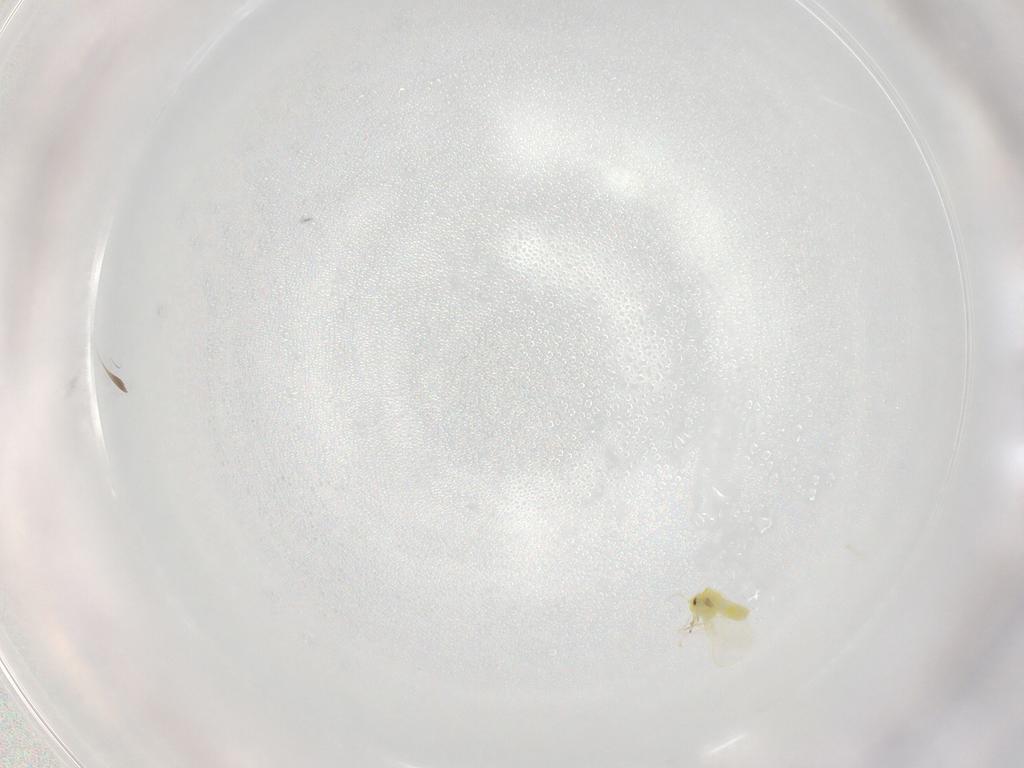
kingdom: Animalia
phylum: Arthropoda
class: Insecta
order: Hemiptera
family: Aleyrodidae
